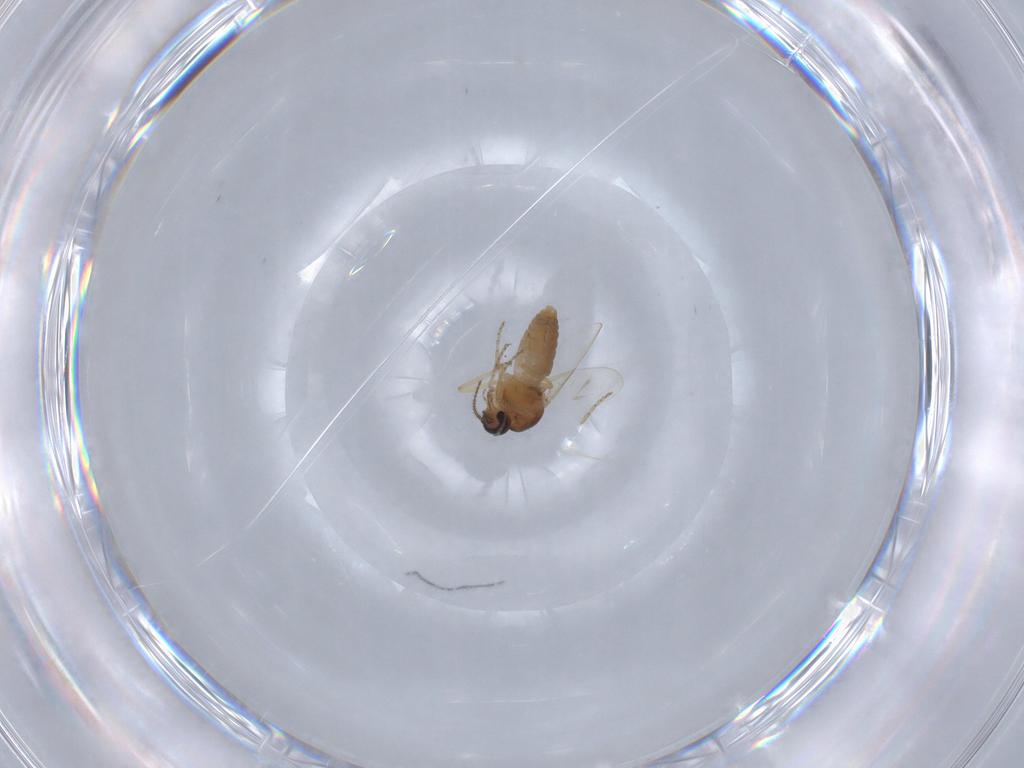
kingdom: Animalia
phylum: Arthropoda
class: Insecta
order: Diptera
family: Ceratopogonidae
